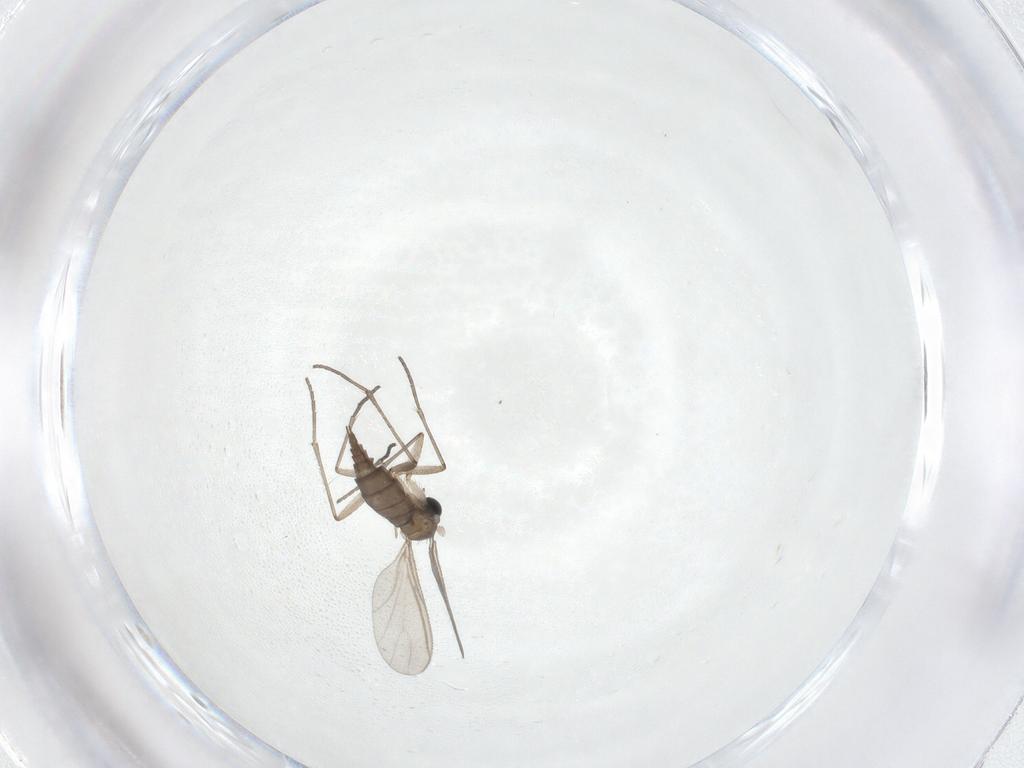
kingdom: Animalia
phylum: Arthropoda
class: Insecta
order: Diptera
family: Sciaridae
